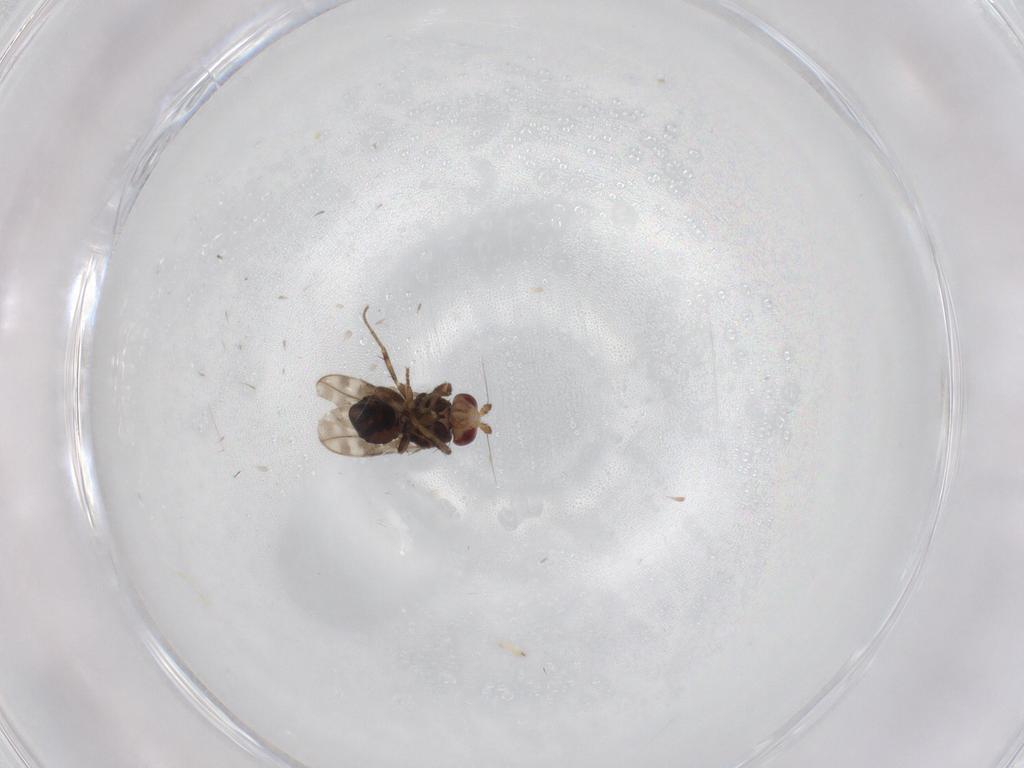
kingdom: Animalia
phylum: Arthropoda
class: Insecta
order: Diptera
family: Sphaeroceridae
